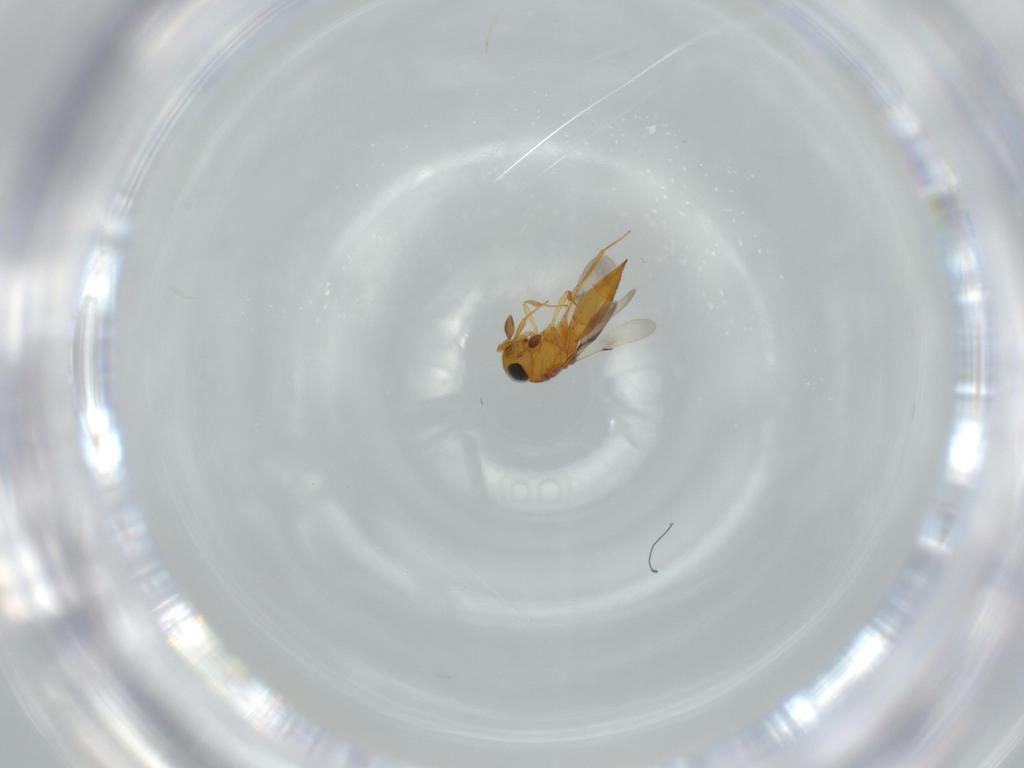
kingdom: Animalia
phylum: Arthropoda
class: Insecta
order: Hymenoptera
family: Scelionidae
